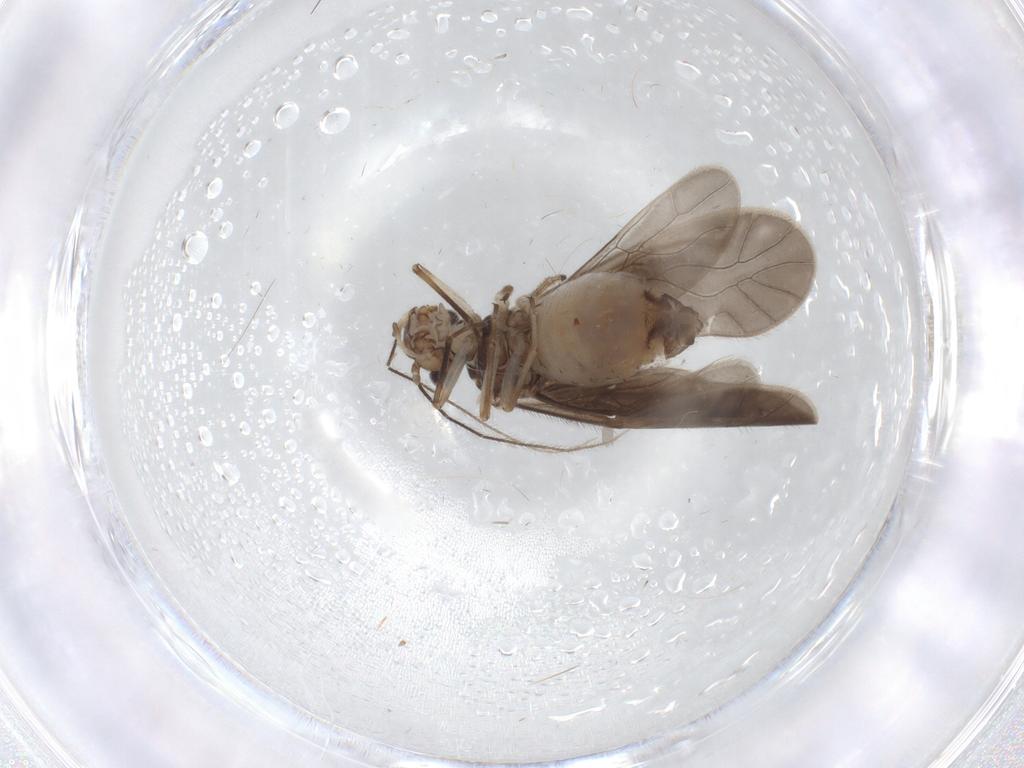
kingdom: Animalia
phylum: Arthropoda
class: Insecta
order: Psocodea
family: Caeciliusidae
